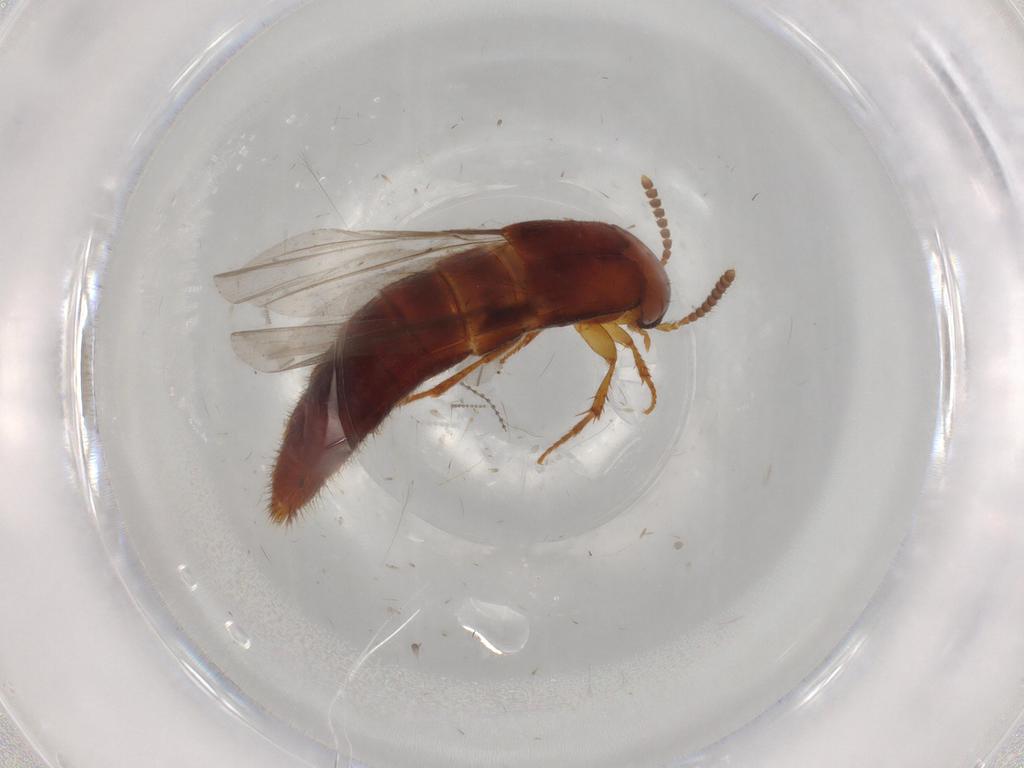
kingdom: Animalia
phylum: Arthropoda
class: Insecta
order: Coleoptera
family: Staphylinidae
